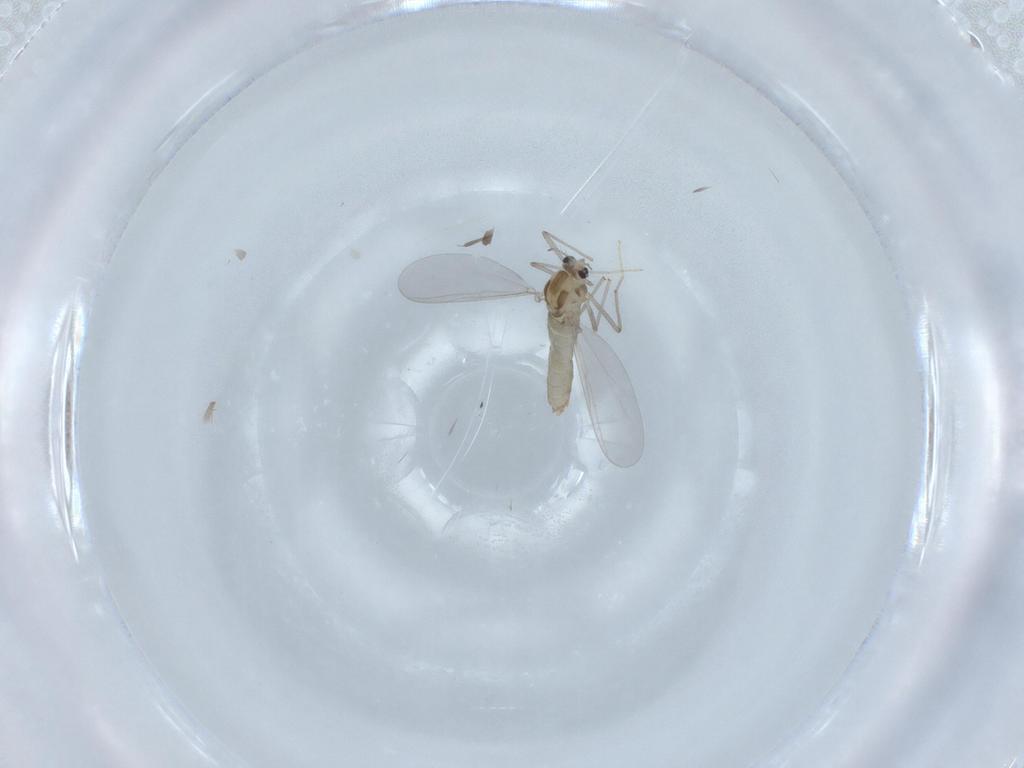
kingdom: Animalia
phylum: Arthropoda
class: Insecta
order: Diptera
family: Chironomidae
